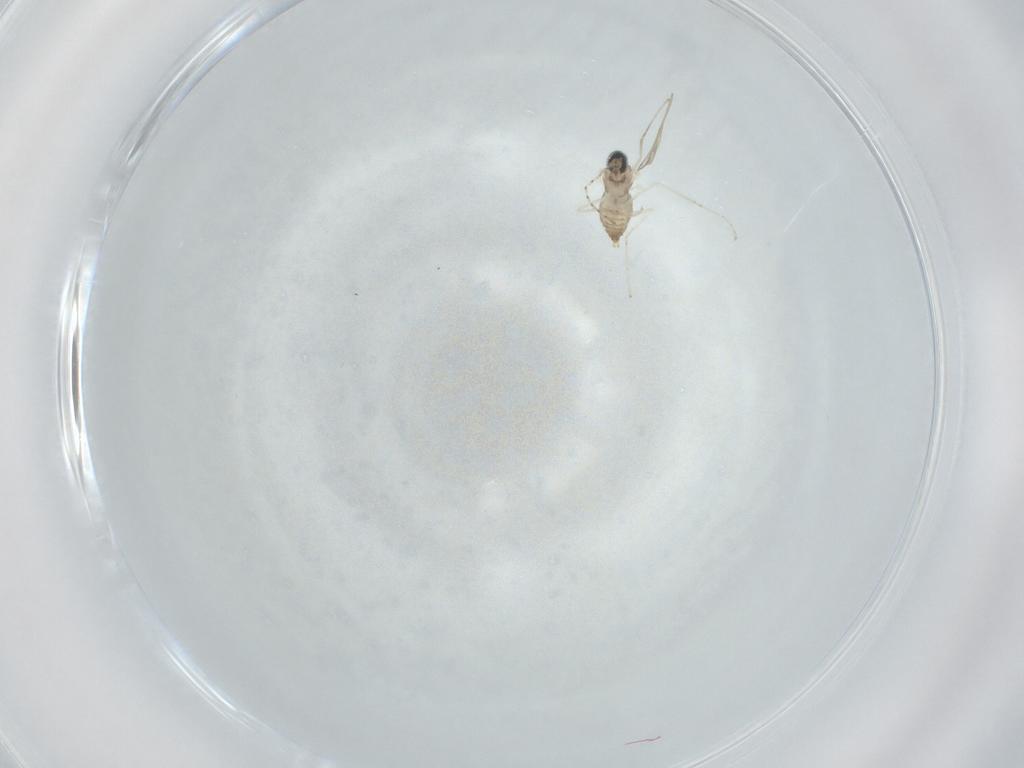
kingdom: Animalia
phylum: Arthropoda
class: Insecta
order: Diptera
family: Cecidomyiidae
